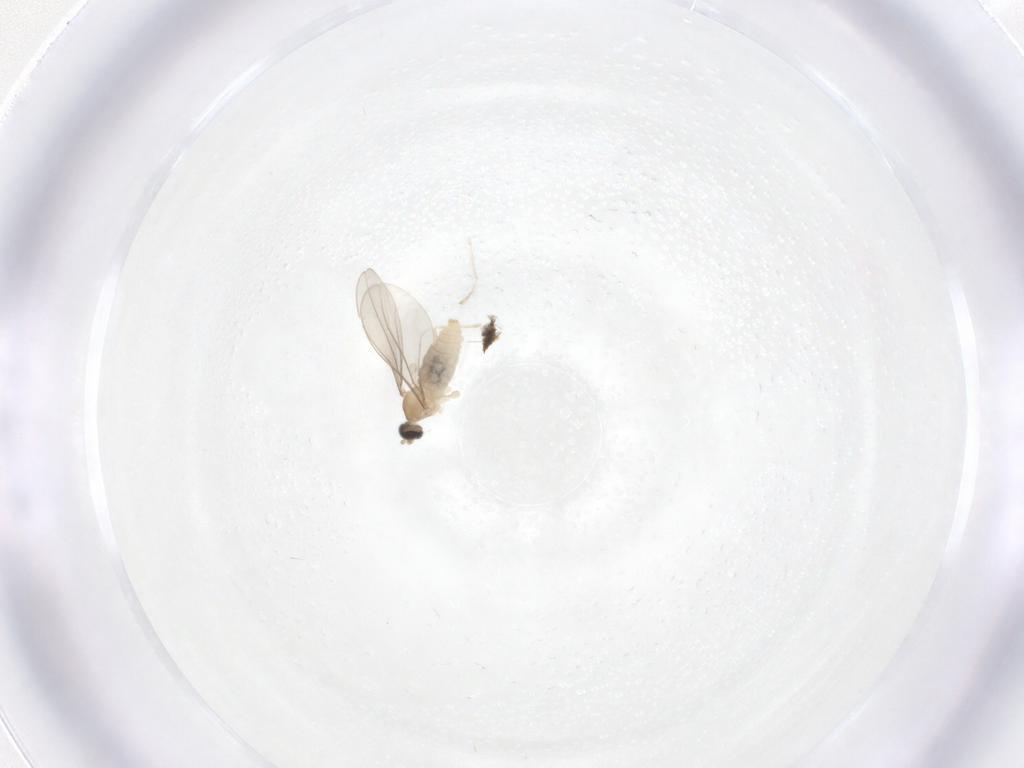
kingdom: Animalia
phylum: Arthropoda
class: Insecta
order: Diptera
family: Cecidomyiidae
